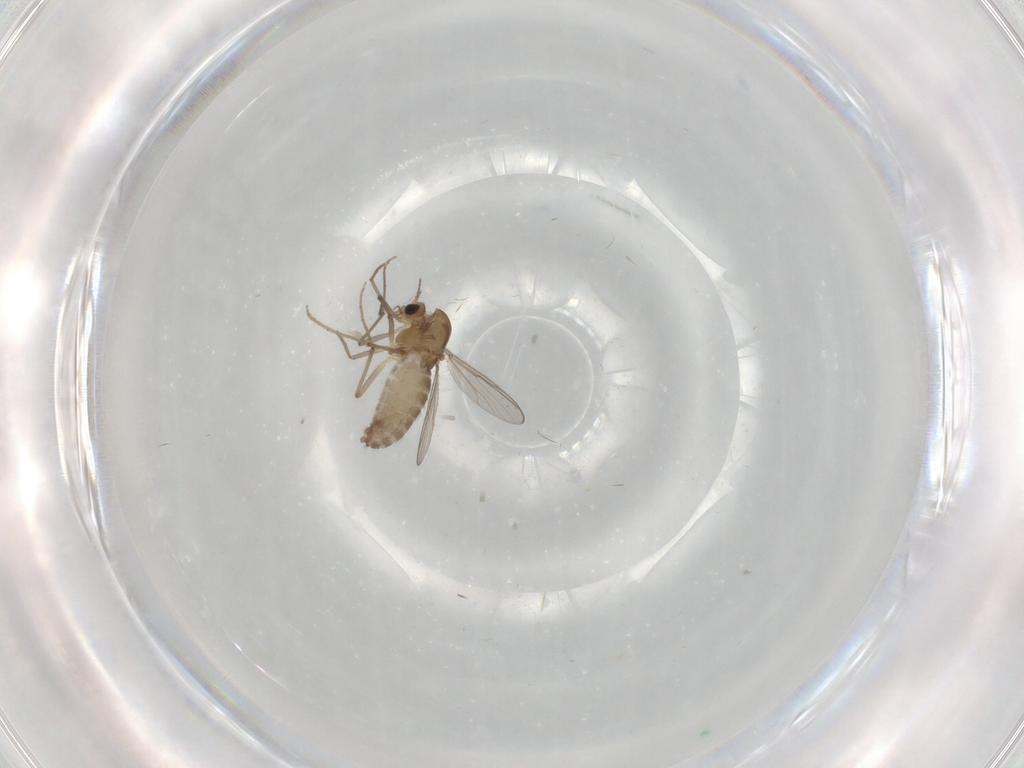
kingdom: Animalia
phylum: Arthropoda
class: Insecta
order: Diptera
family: Chironomidae
